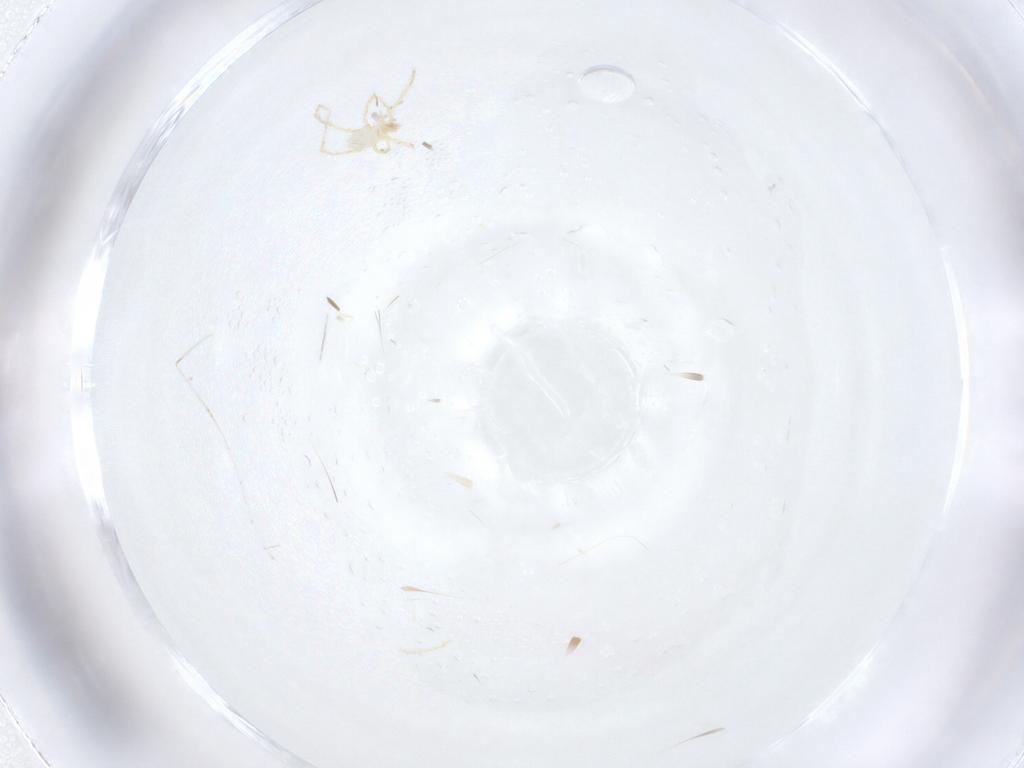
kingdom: Animalia
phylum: Arthropoda
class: Arachnida
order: Trombidiformes
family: Erythraeidae
